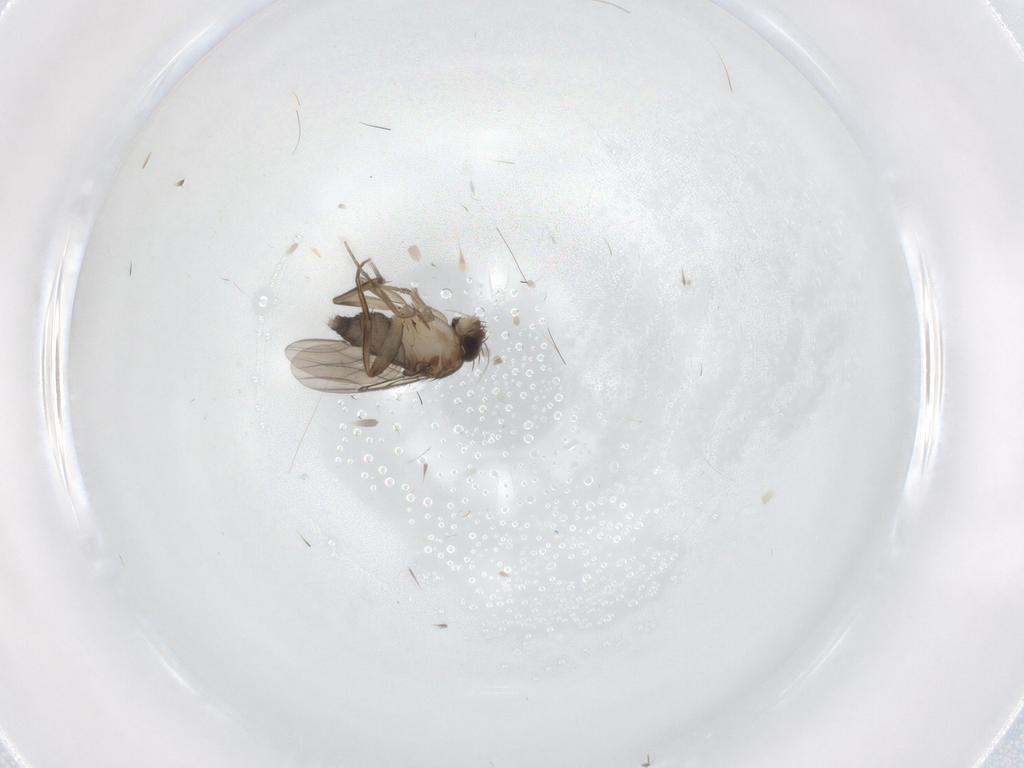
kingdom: Animalia
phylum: Arthropoda
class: Insecta
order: Diptera
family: Phoridae
